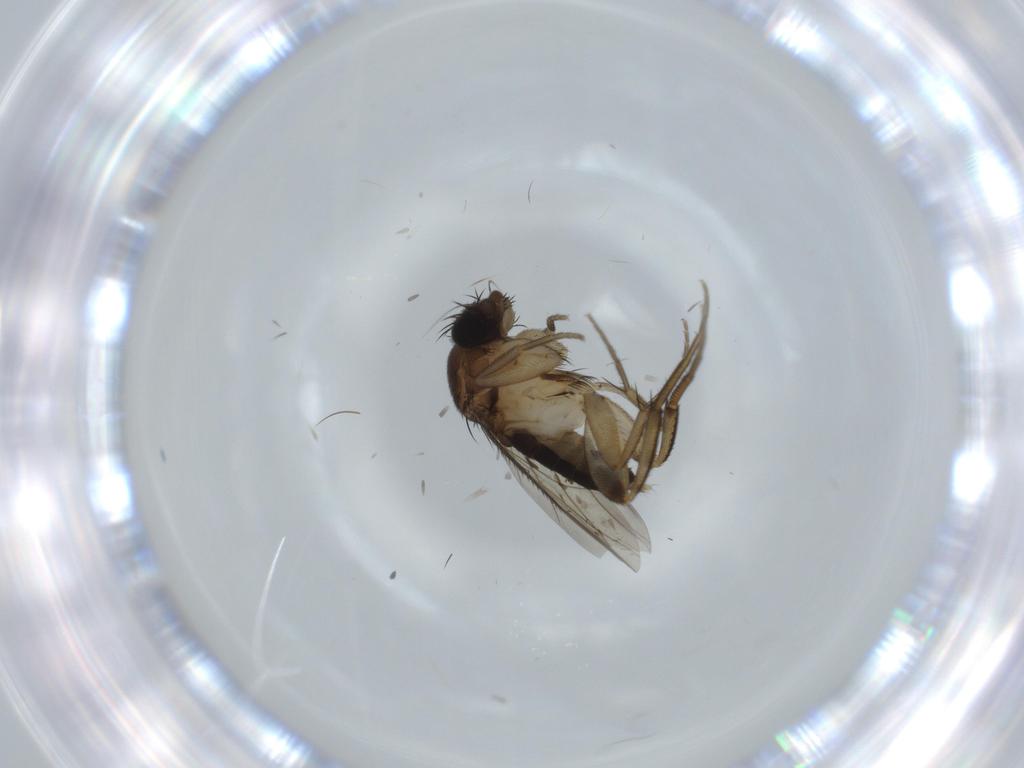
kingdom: Animalia
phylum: Arthropoda
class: Insecta
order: Diptera
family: Phoridae
